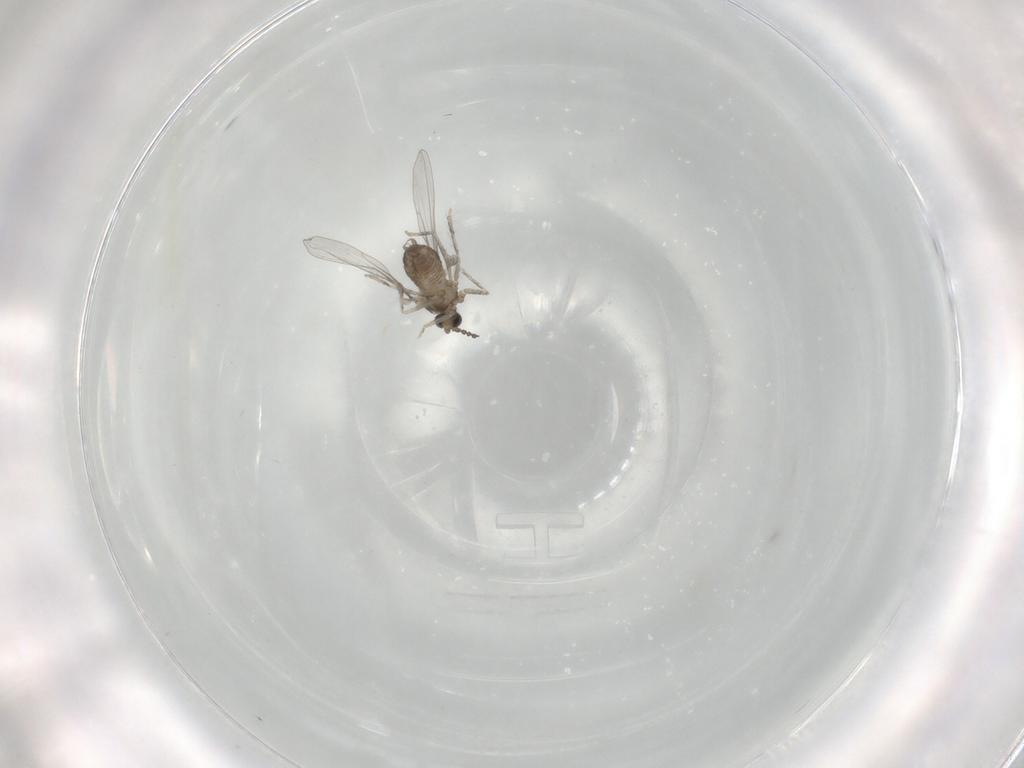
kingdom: Animalia
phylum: Arthropoda
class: Insecta
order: Diptera
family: Cecidomyiidae
